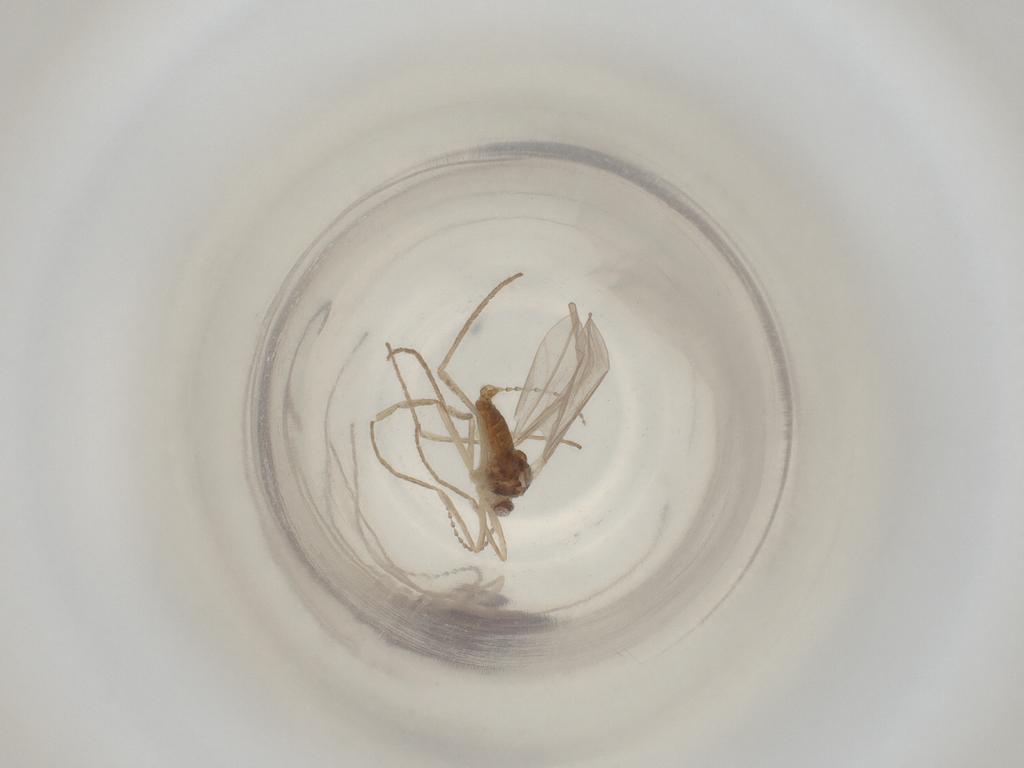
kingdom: Animalia
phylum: Arthropoda
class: Insecta
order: Diptera
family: Cecidomyiidae
